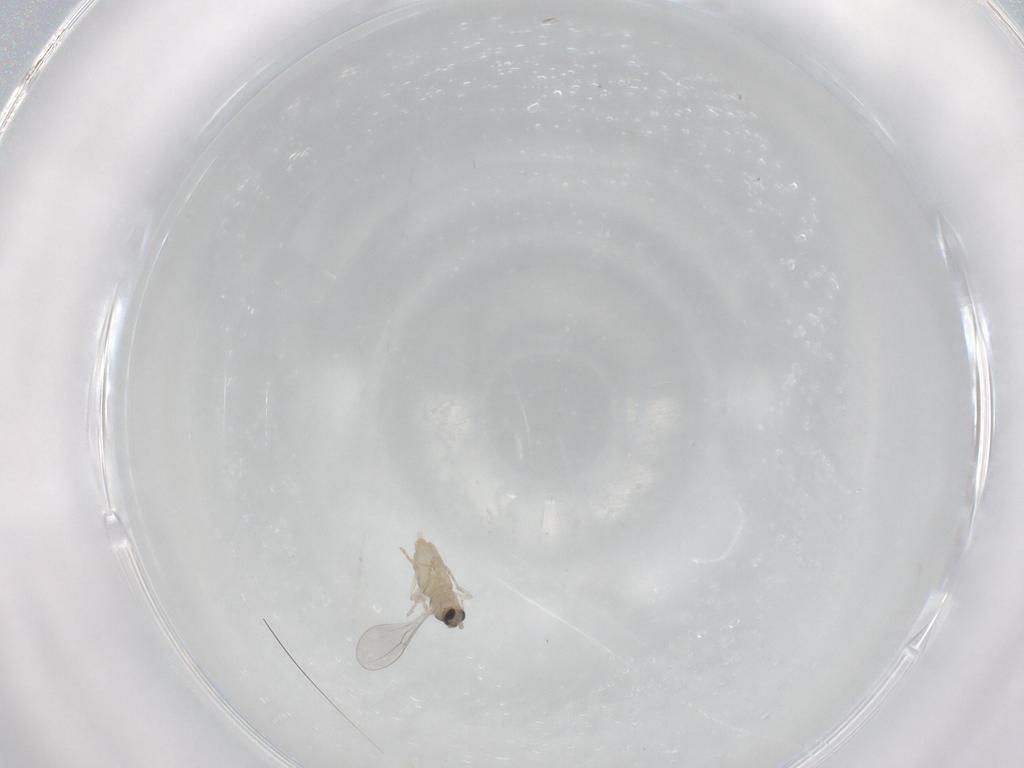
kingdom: Animalia
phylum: Arthropoda
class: Insecta
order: Diptera
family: Cecidomyiidae
